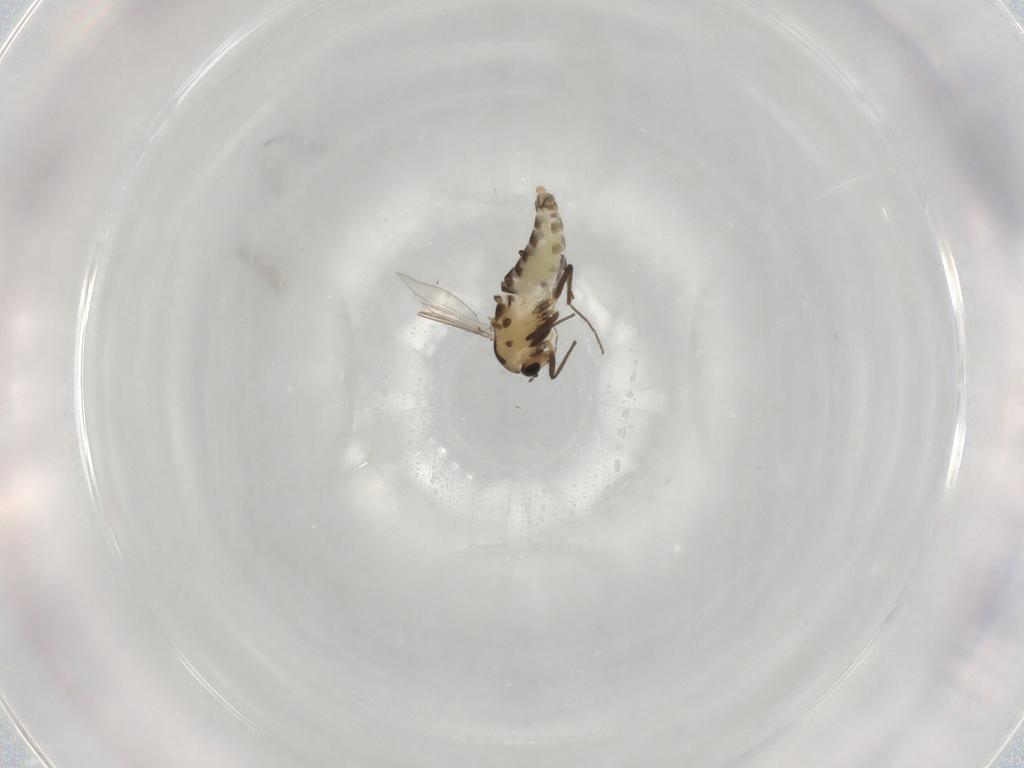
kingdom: Animalia
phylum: Arthropoda
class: Insecta
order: Diptera
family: Chironomidae
